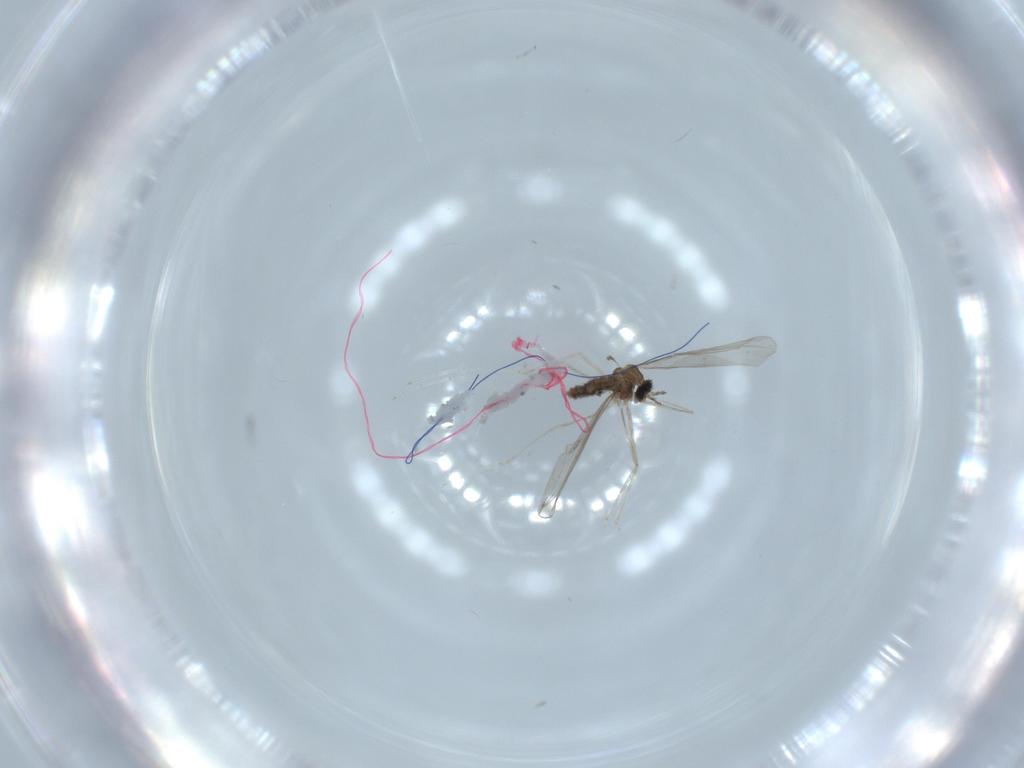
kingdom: Animalia
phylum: Arthropoda
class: Insecta
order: Diptera
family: Cecidomyiidae
